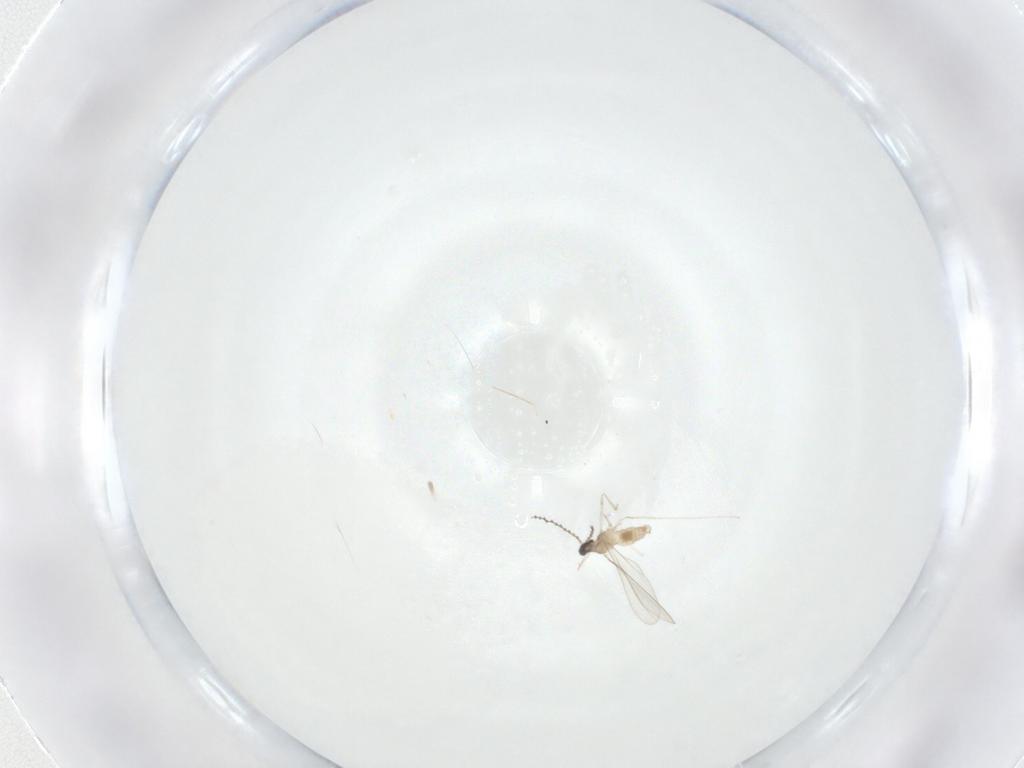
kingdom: Animalia
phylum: Arthropoda
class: Insecta
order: Diptera
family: Cecidomyiidae
